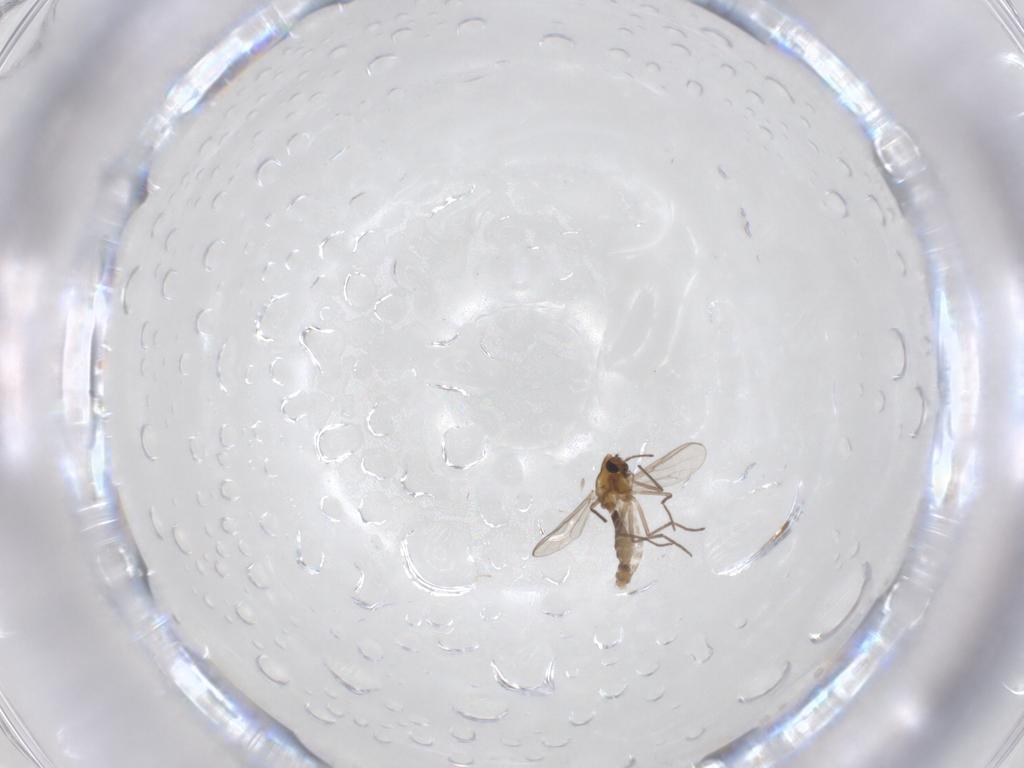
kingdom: Animalia
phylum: Arthropoda
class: Insecta
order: Diptera
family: Chironomidae
